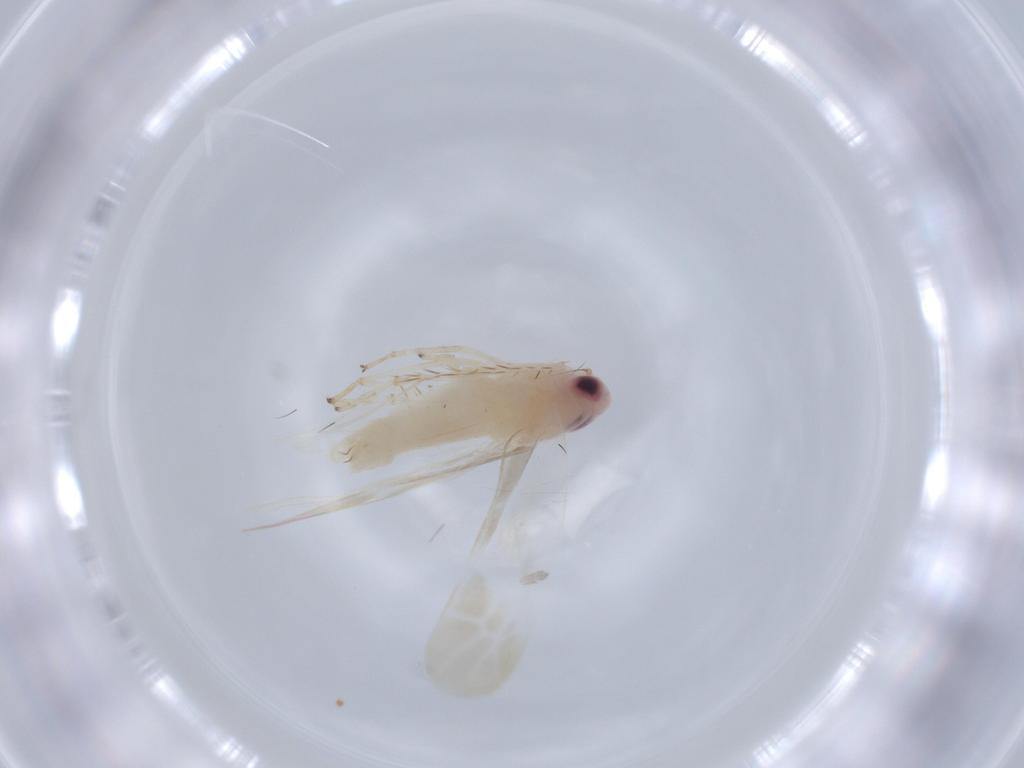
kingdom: Animalia
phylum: Arthropoda
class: Insecta
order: Hemiptera
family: Cicadellidae
